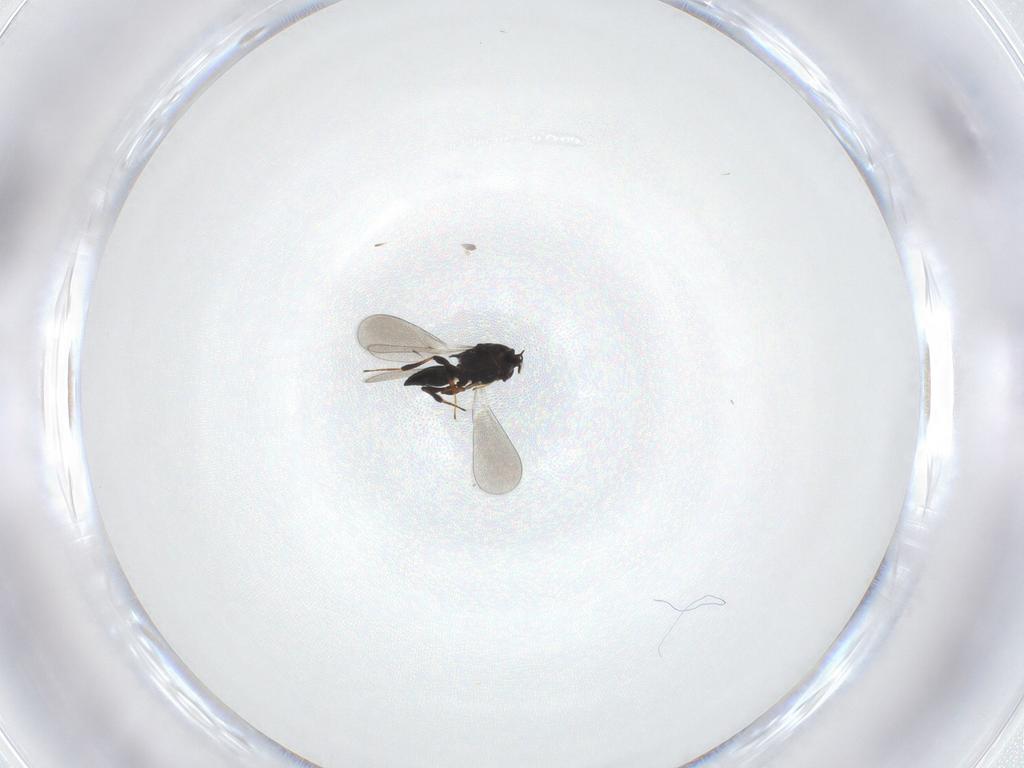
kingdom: Animalia
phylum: Arthropoda
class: Insecta
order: Hymenoptera
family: Platygastridae
